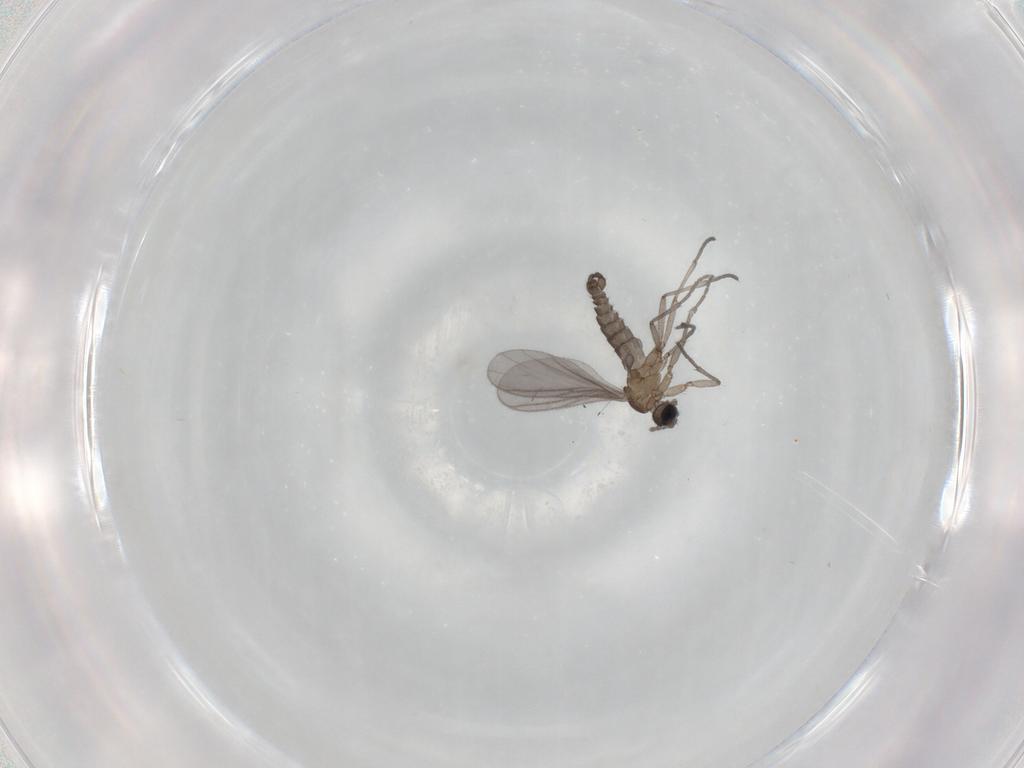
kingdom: Animalia
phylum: Arthropoda
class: Insecta
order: Diptera
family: Sciaridae
